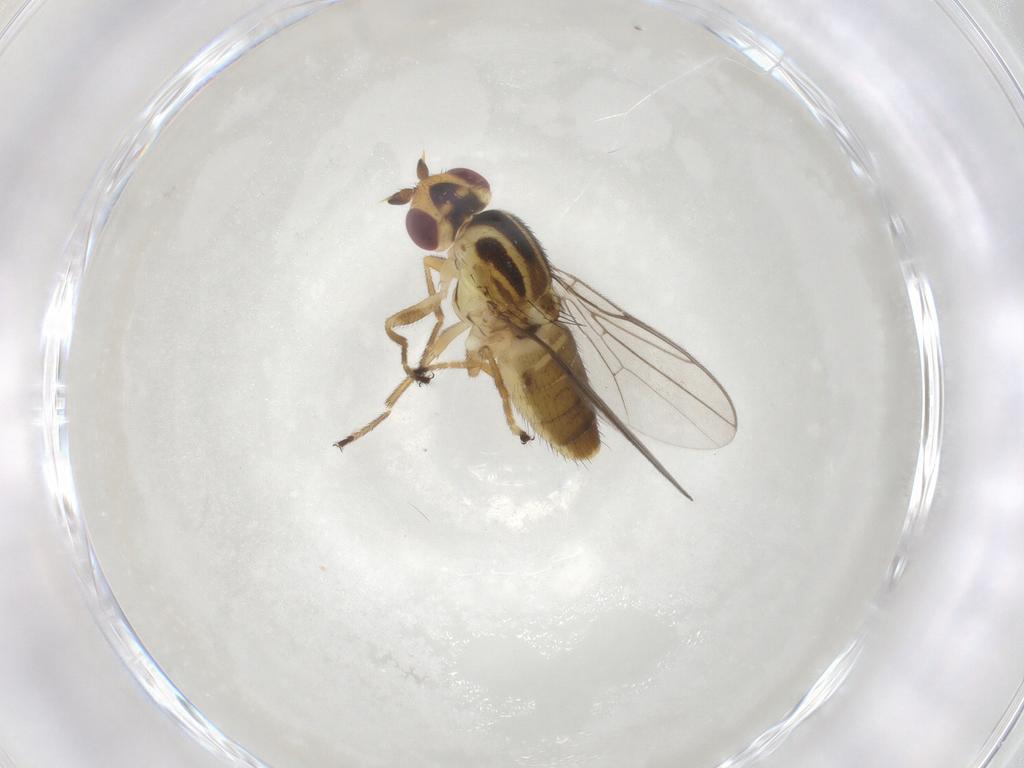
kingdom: Animalia
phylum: Arthropoda
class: Insecta
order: Diptera
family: Chloropidae
